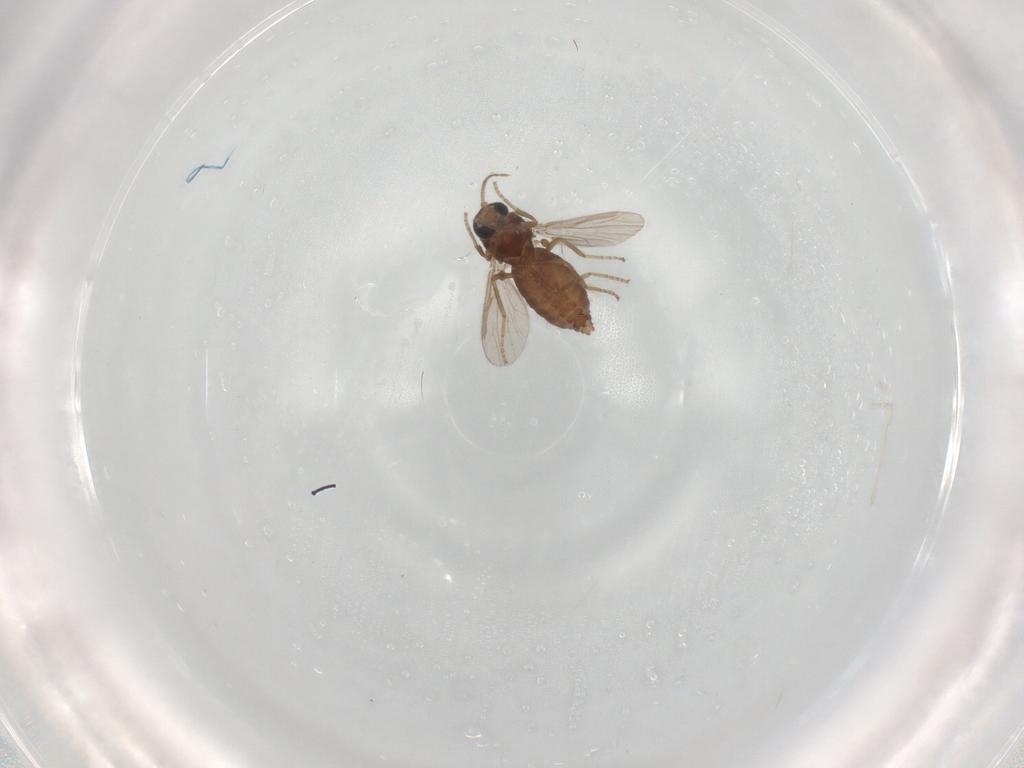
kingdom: Animalia
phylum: Arthropoda
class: Insecta
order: Diptera
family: Ceratopogonidae
